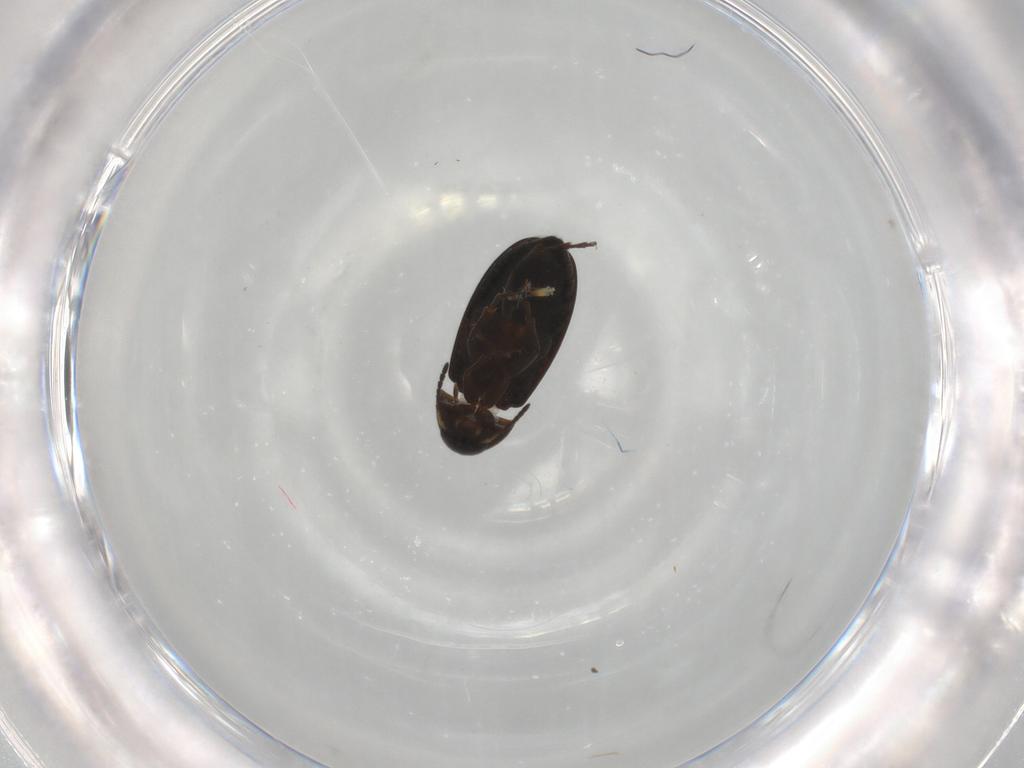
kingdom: Animalia
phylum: Arthropoda
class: Insecta
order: Coleoptera
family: Scraptiidae
